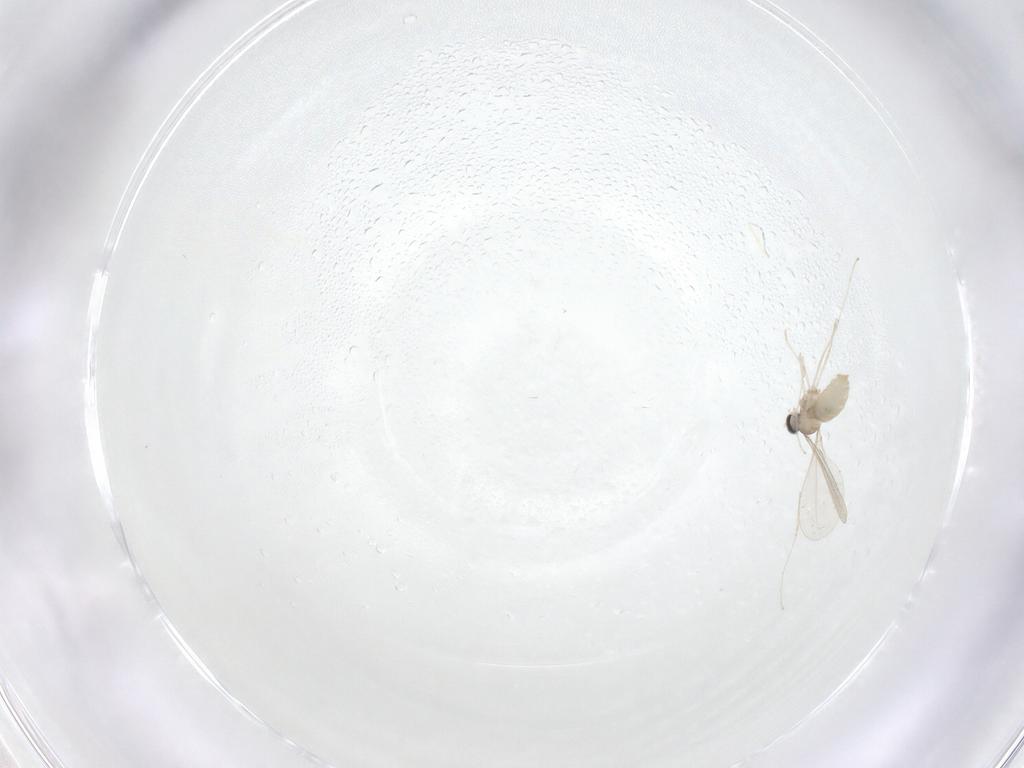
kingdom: Animalia
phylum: Arthropoda
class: Insecta
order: Diptera
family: Cecidomyiidae
